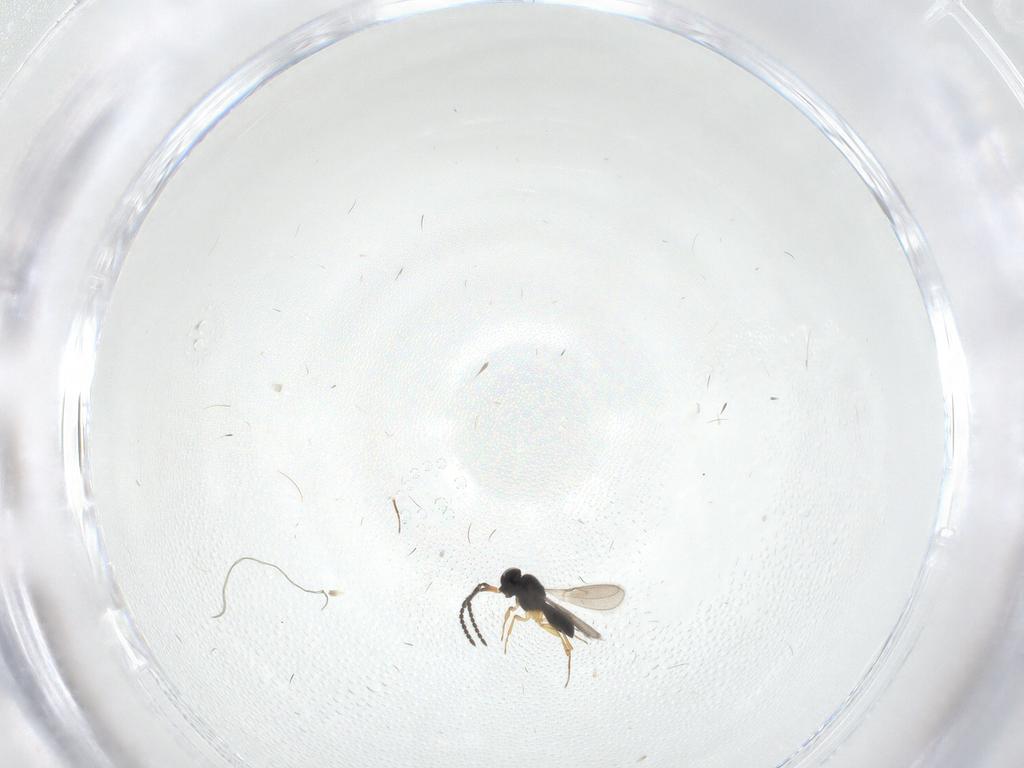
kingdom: Animalia
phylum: Arthropoda
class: Insecta
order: Hymenoptera
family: Scelionidae
